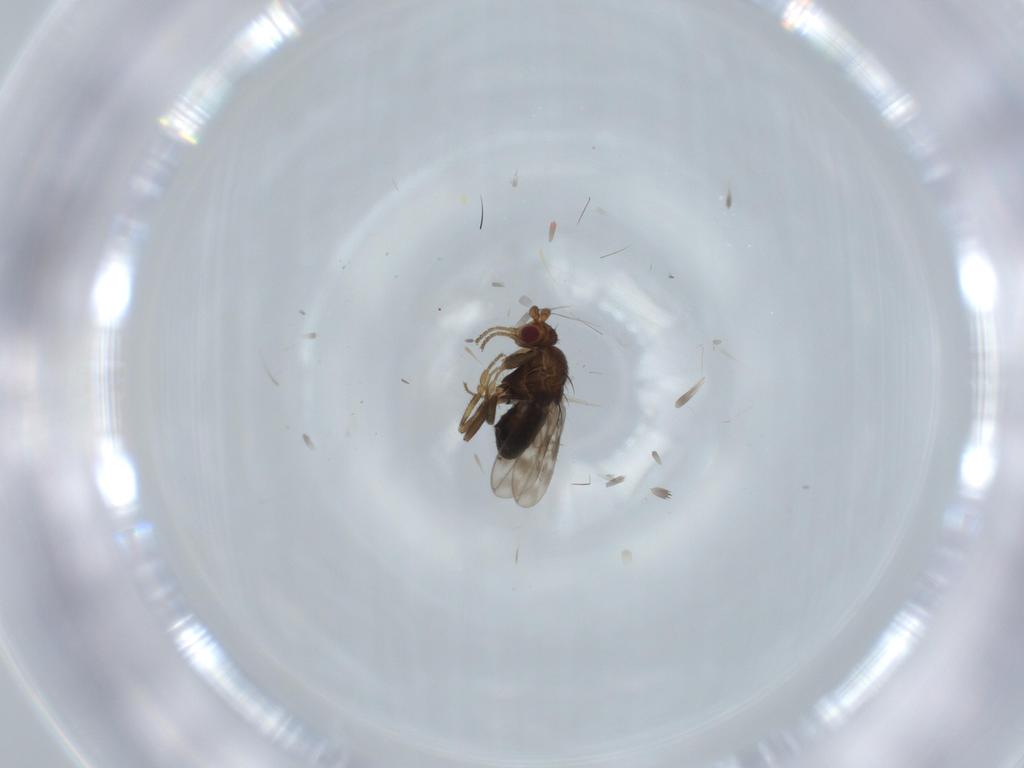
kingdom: Animalia
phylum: Arthropoda
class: Insecta
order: Diptera
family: Sphaeroceridae
